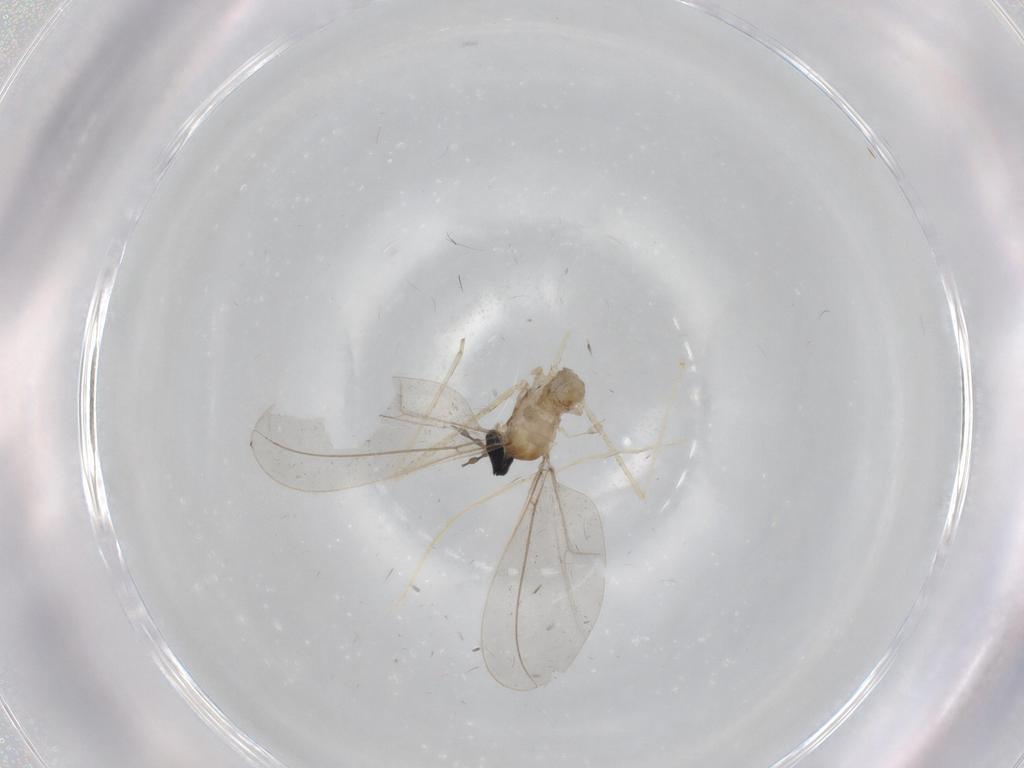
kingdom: Animalia
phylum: Arthropoda
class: Insecta
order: Diptera
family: Cecidomyiidae
